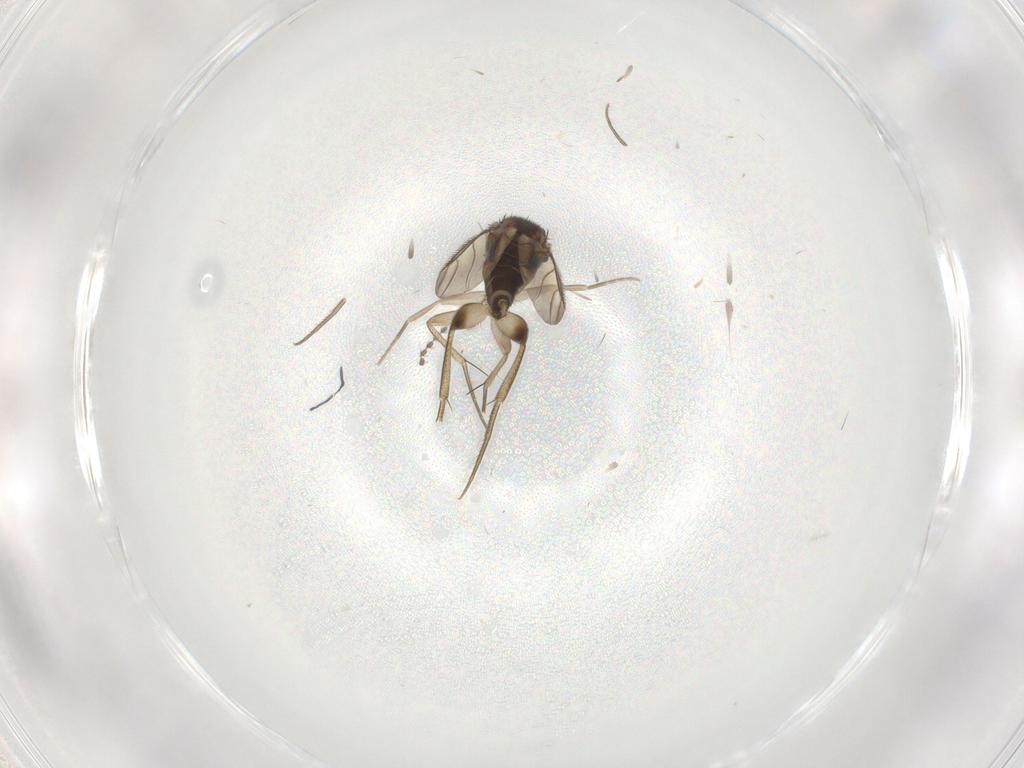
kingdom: Animalia
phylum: Arthropoda
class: Insecta
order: Diptera
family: Phoridae
